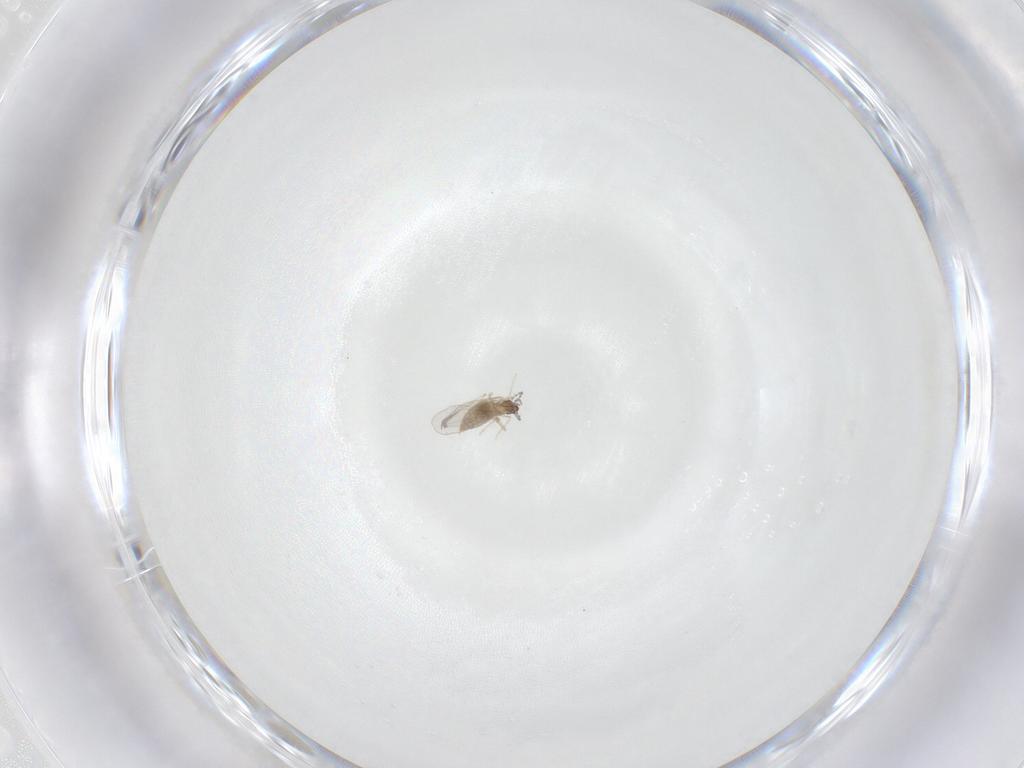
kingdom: Animalia
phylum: Arthropoda
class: Insecta
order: Diptera
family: Cecidomyiidae
